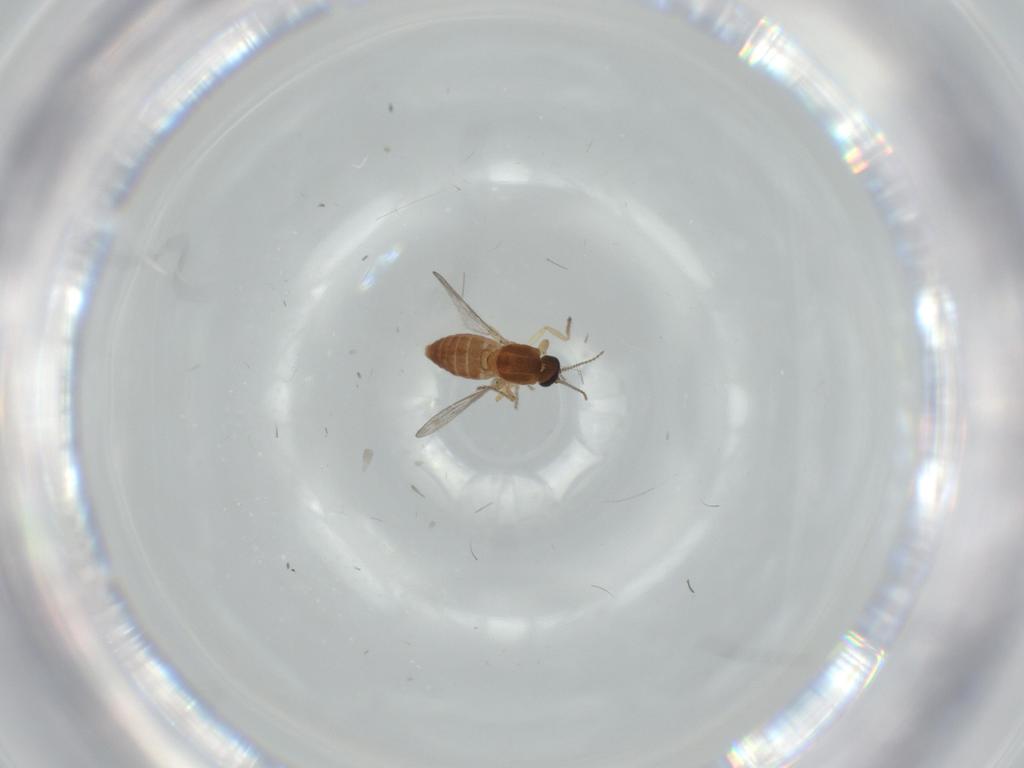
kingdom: Animalia
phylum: Arthropoda
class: Insecta
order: Diptera
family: Sciaridae
